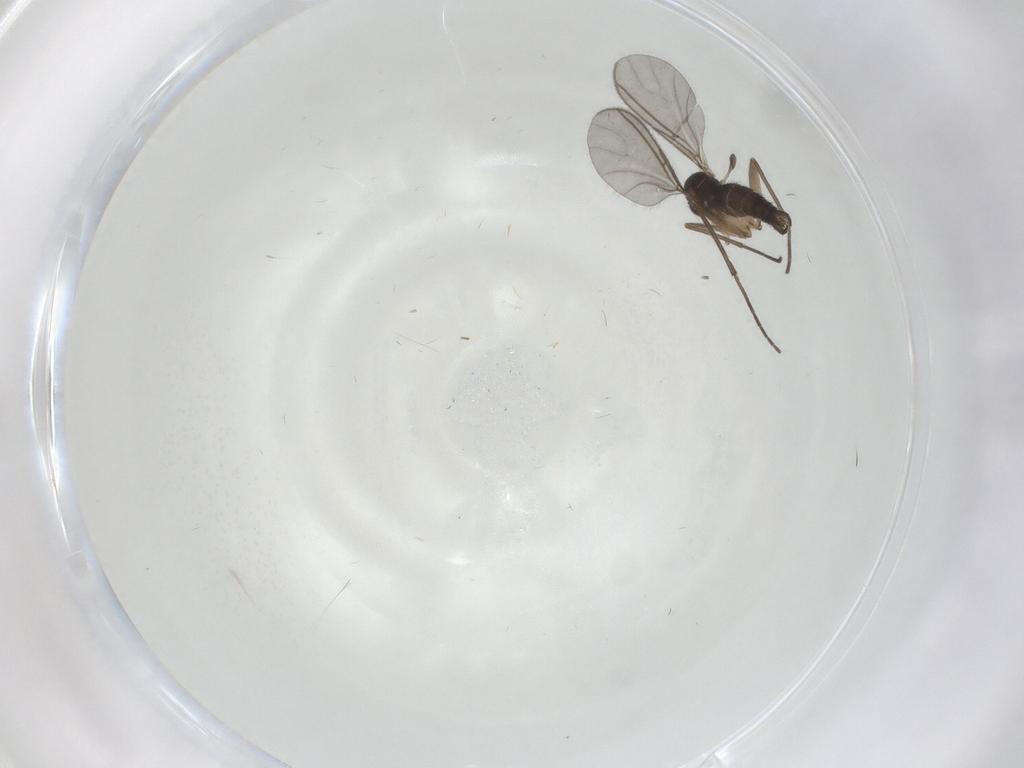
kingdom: Animalia
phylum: Arthropoda
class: Insecta
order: Diptera
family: Sciaridae
